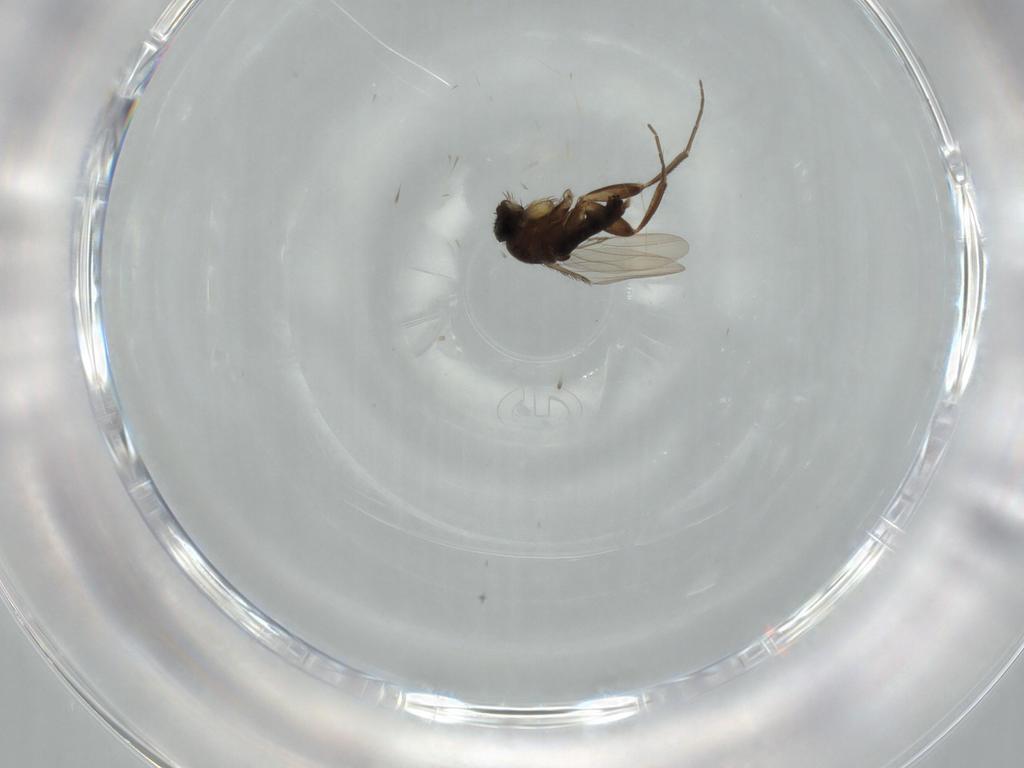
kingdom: Animalia
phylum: Arthropoda
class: Insecta
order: Diptera
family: Phoridae
